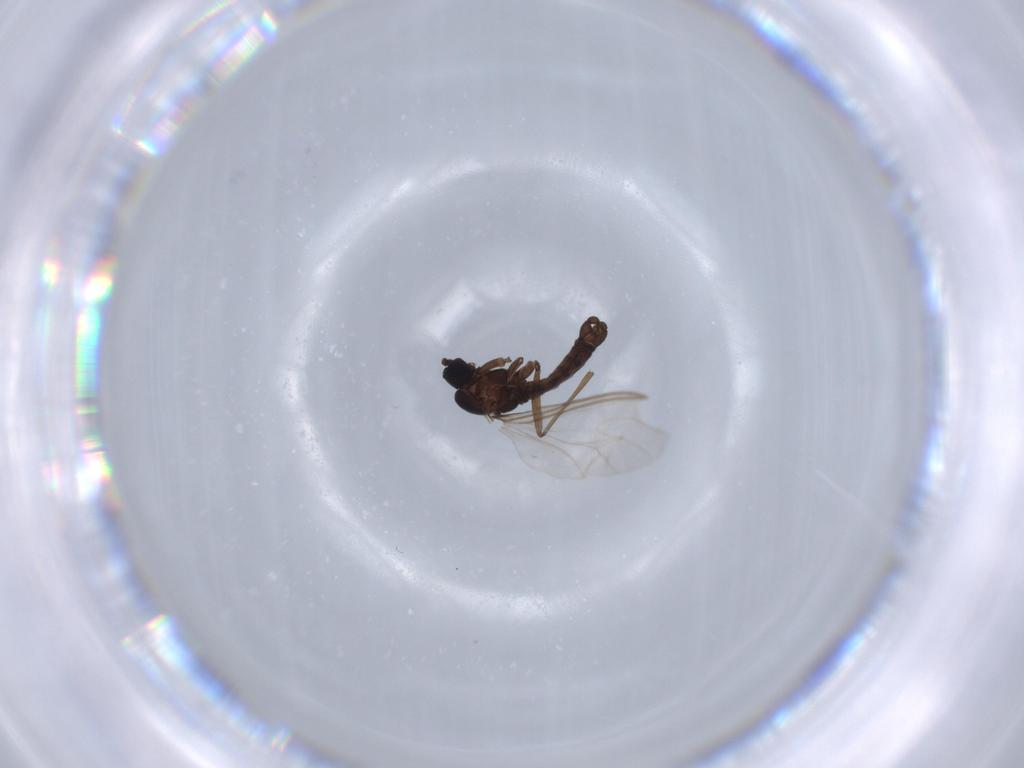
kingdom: Animalia
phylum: Arthropoda
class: Insecta
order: Diptera
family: Sciaridae
